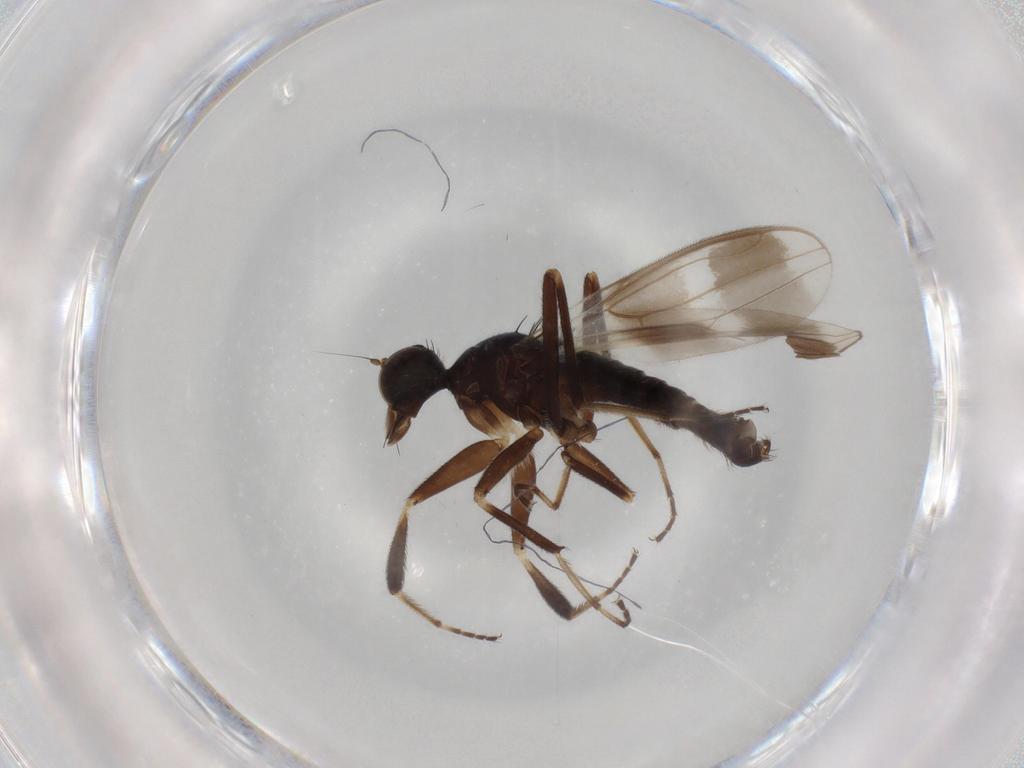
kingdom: Animalia
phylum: Arthropoda
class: Insecta
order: Diptera
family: Hybotidae
